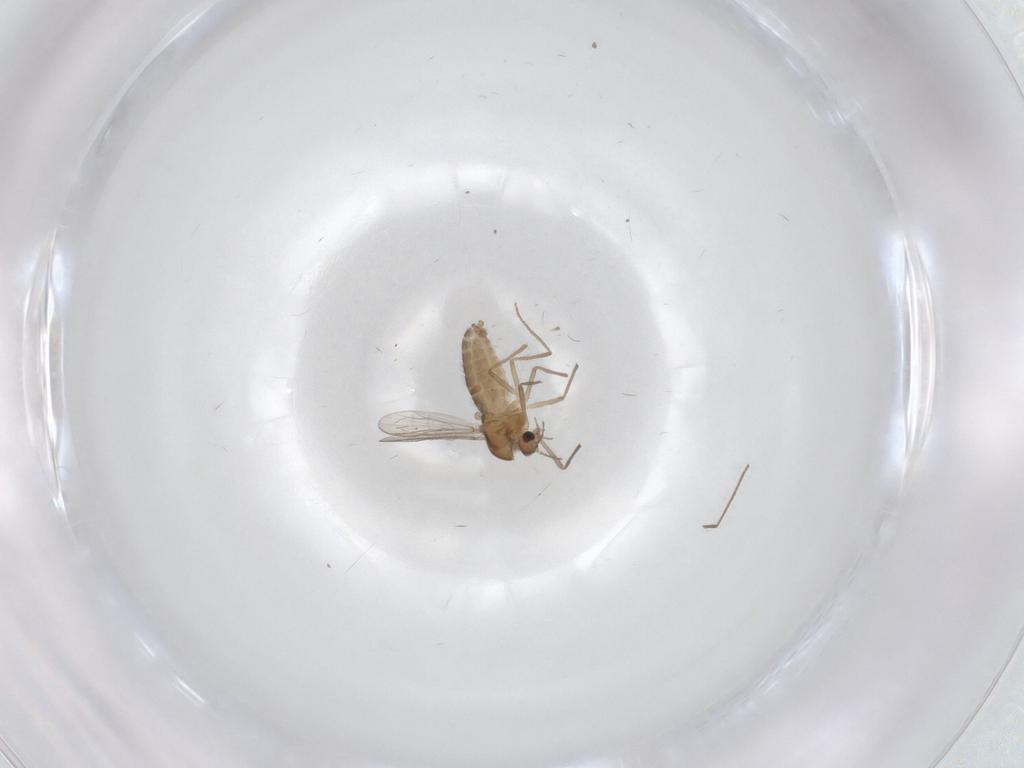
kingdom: Animalia
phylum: Arthropoda
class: Insecta
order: Diptera
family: Chironomidae
